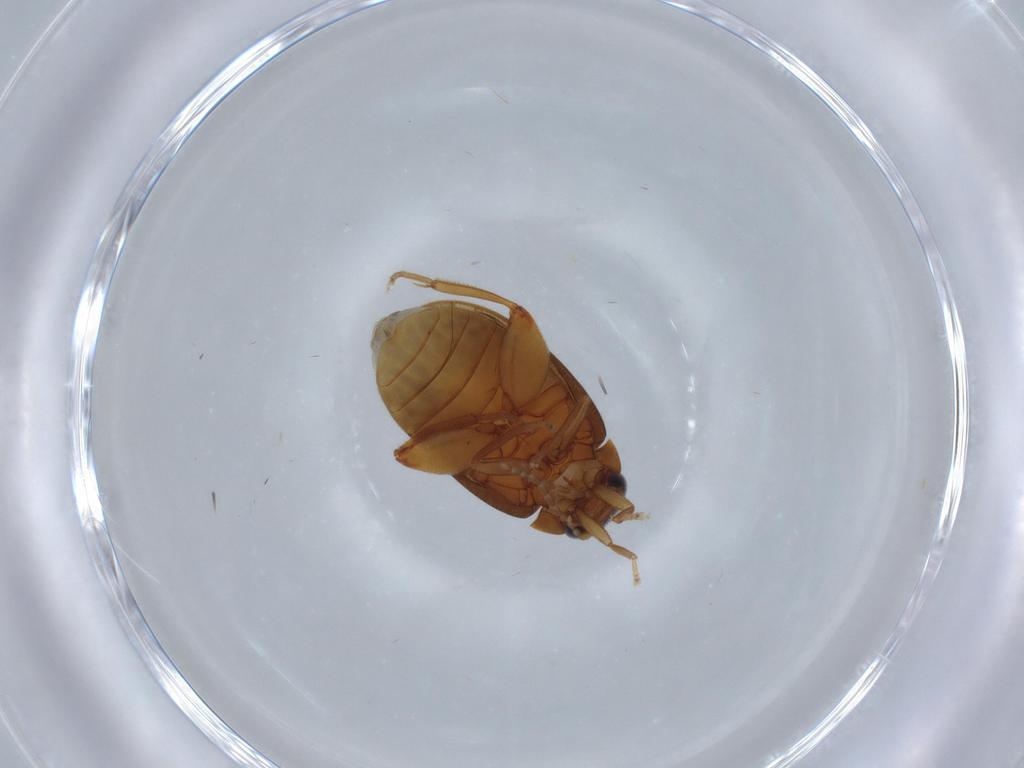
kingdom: Animalia
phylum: Arthropoda
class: Insecta
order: Coleoptera
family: Scirtidae
